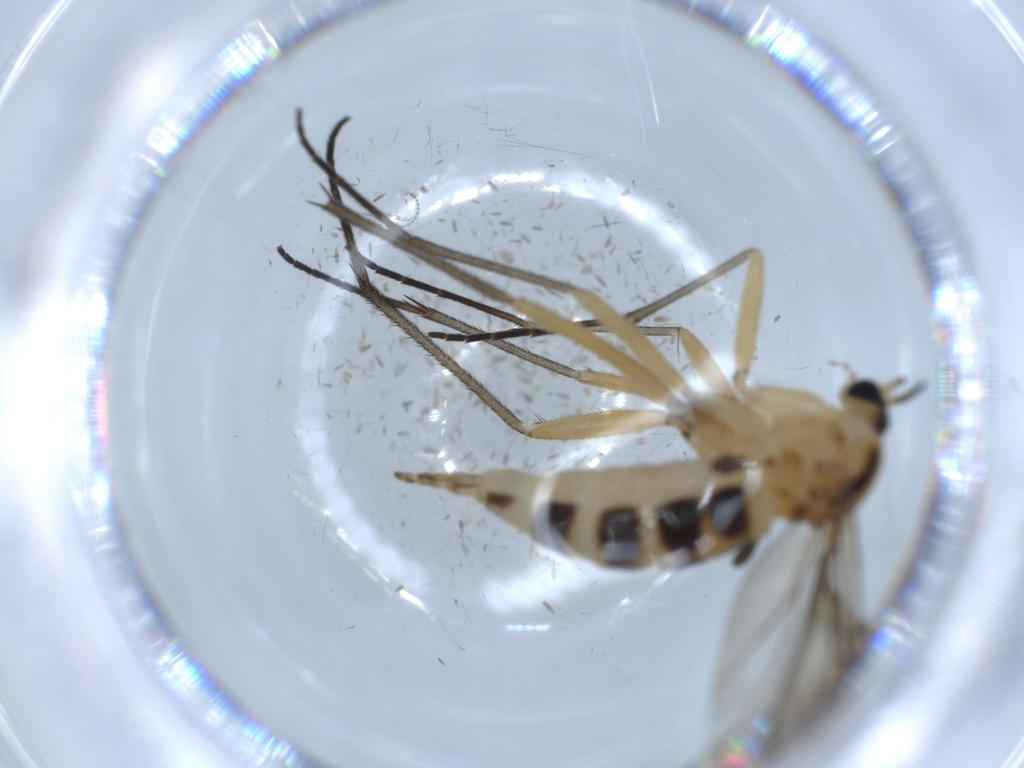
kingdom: Animalia
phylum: Arthropoda
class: Insecta
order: Diptera
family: Sciaridae
